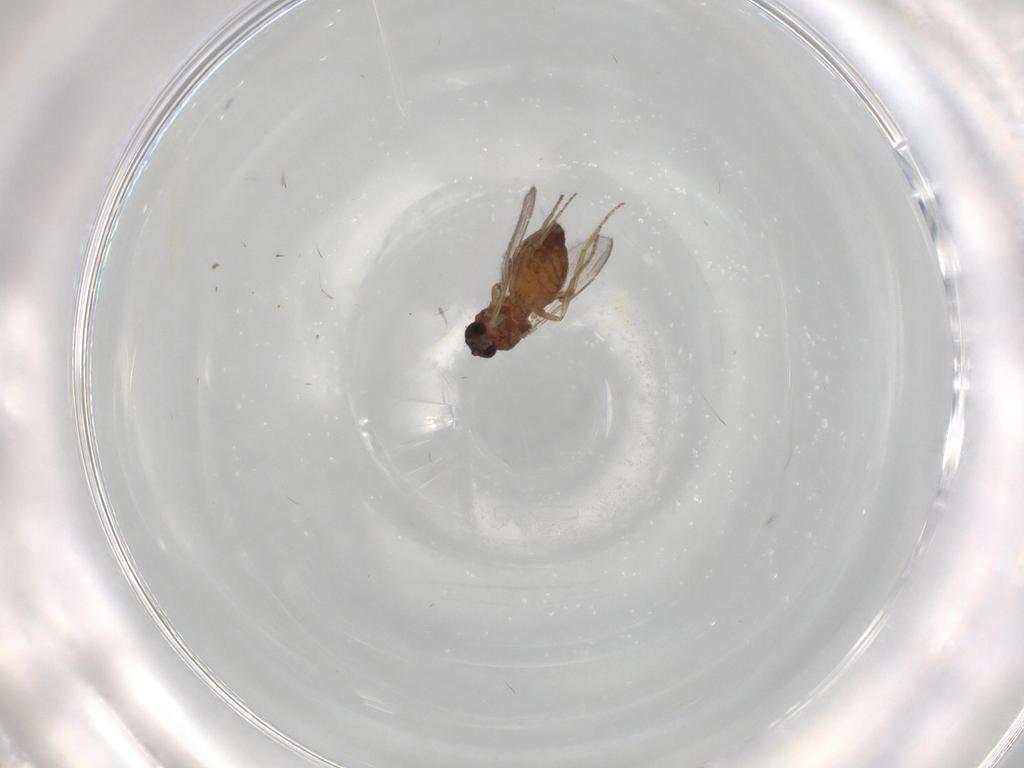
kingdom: Animalia
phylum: Arthropoda
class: Insecta
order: Diptera
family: Ceratopogonidae
